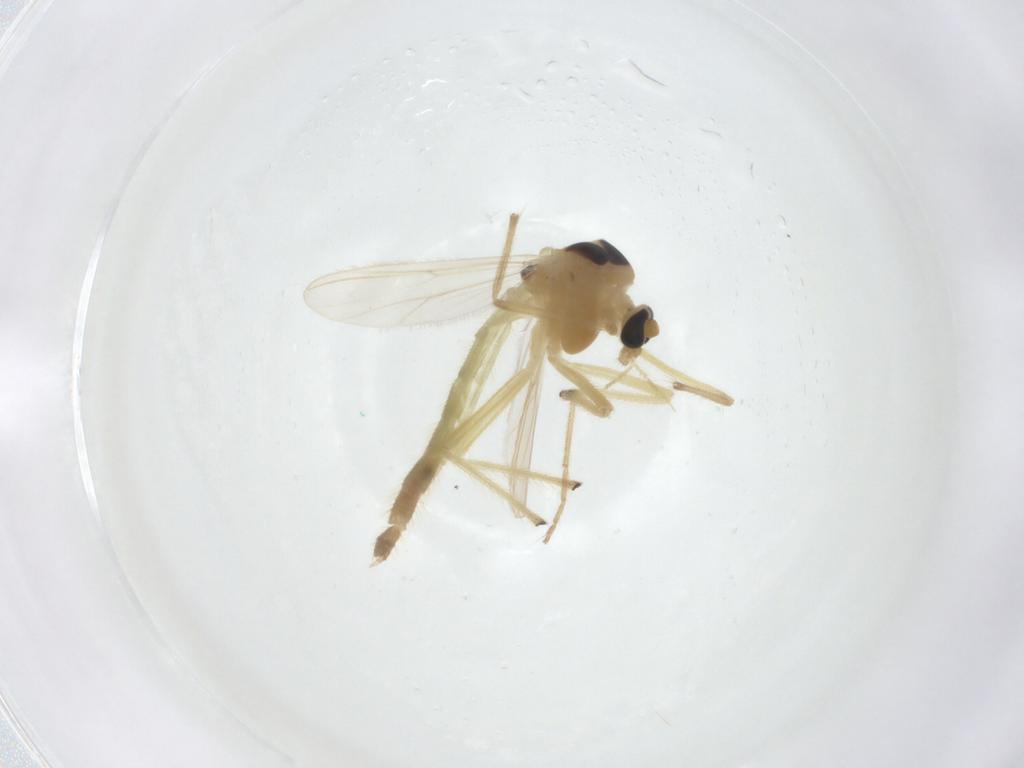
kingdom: Animalia
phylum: Arthropoda
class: Insecta
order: Diptera
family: Chironomidae
